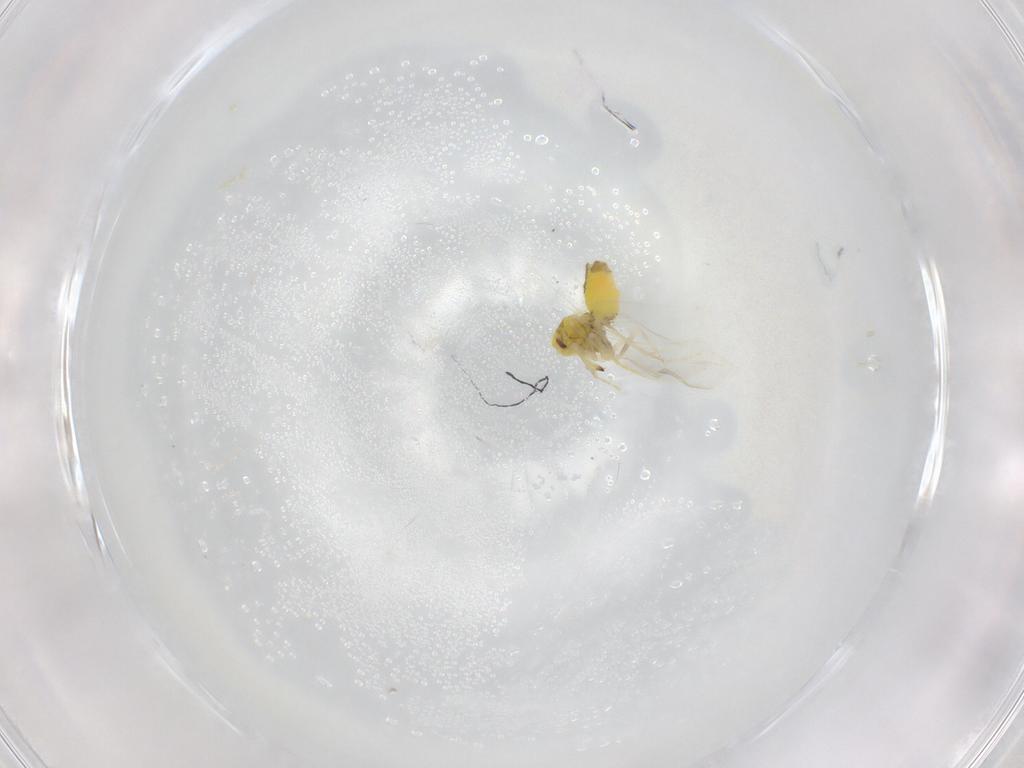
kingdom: Animalia
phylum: Arthropoda
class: Insecta
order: Hemiptera
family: Aleyrodidae
